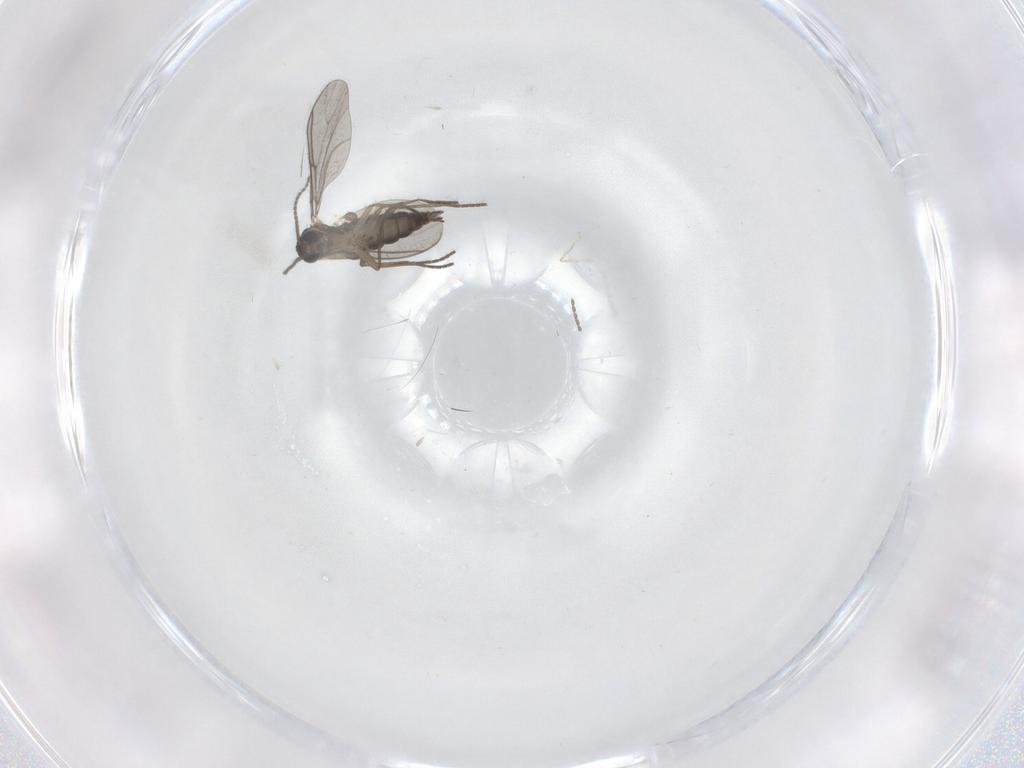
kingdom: Animalia
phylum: Arthropoda
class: Insecta
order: Diptera
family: Sciaridae
